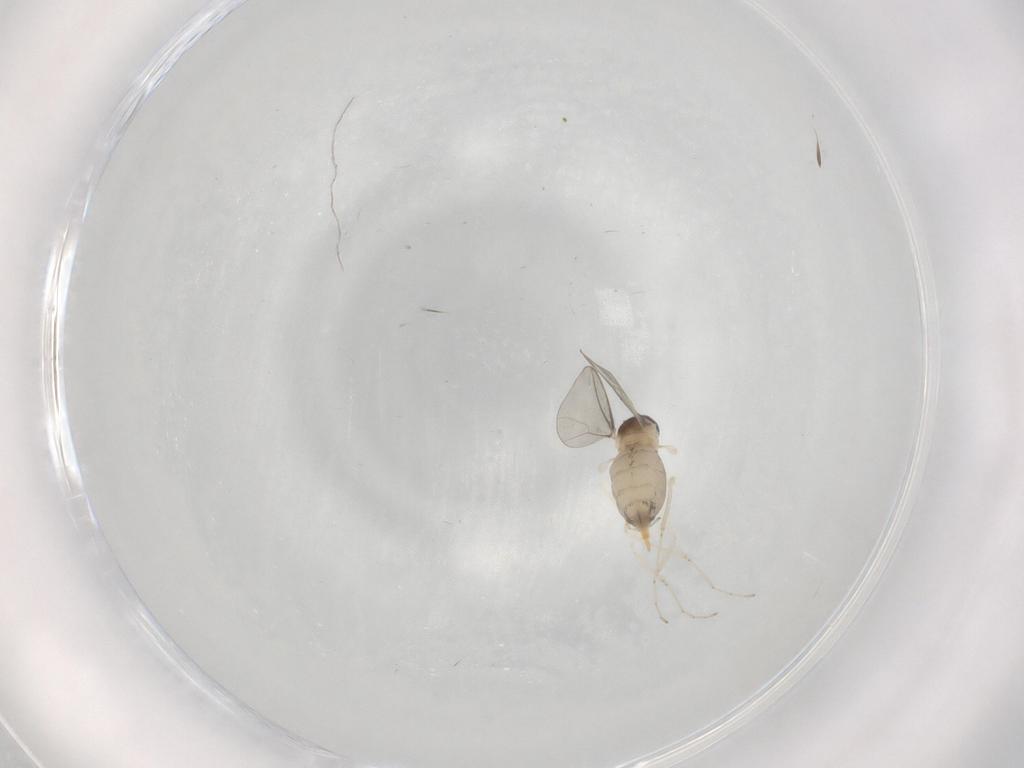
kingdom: Animalia
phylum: Arthropoda
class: Insecta
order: Diptera
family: Cecidomyiidae
